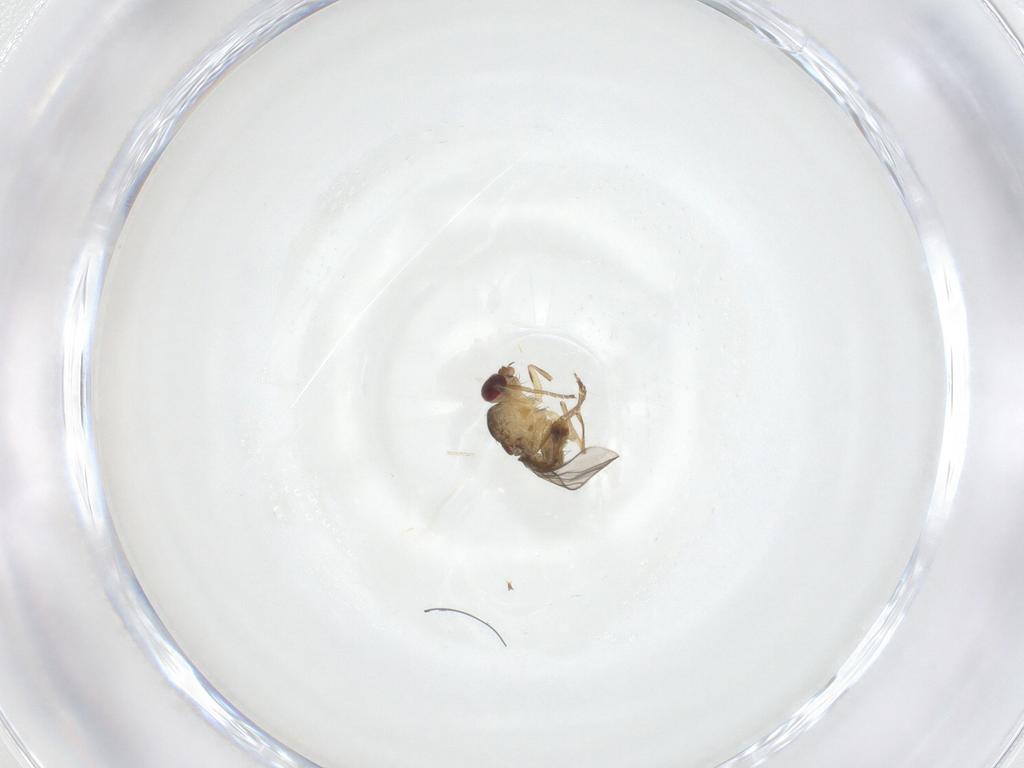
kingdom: Animalia
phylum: Arthropoda
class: Insecta
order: Diptera
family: Agromyzidae
